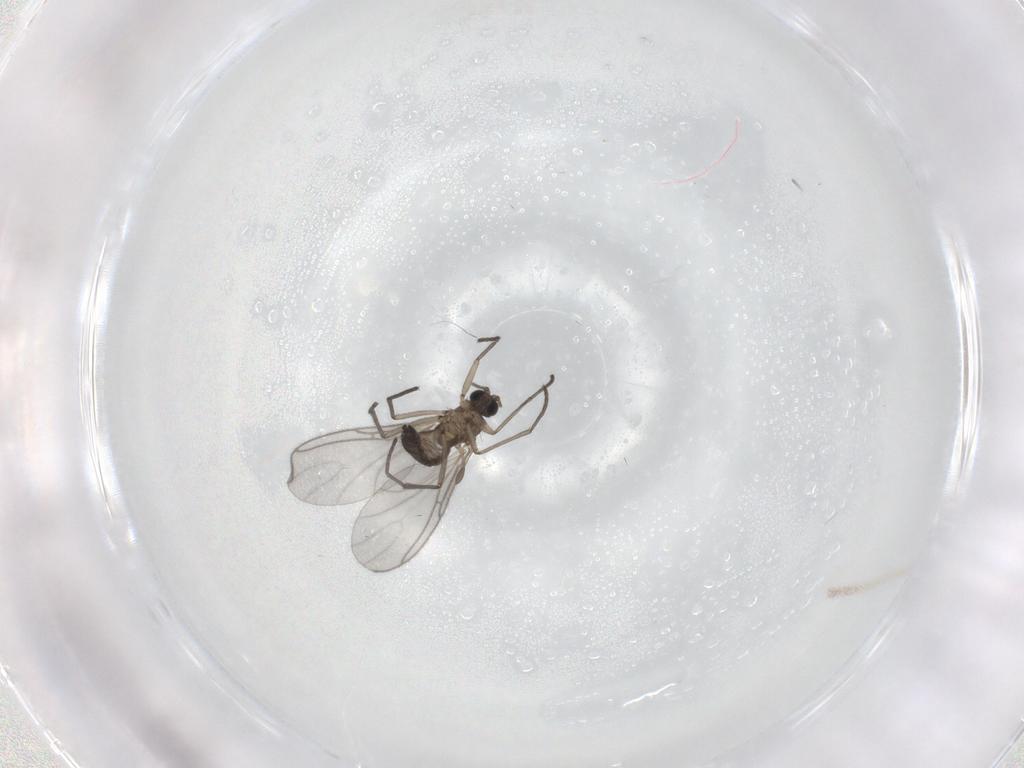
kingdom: Animalia
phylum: Arthropoda
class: Insecta
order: Diptera
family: Sciaridae
